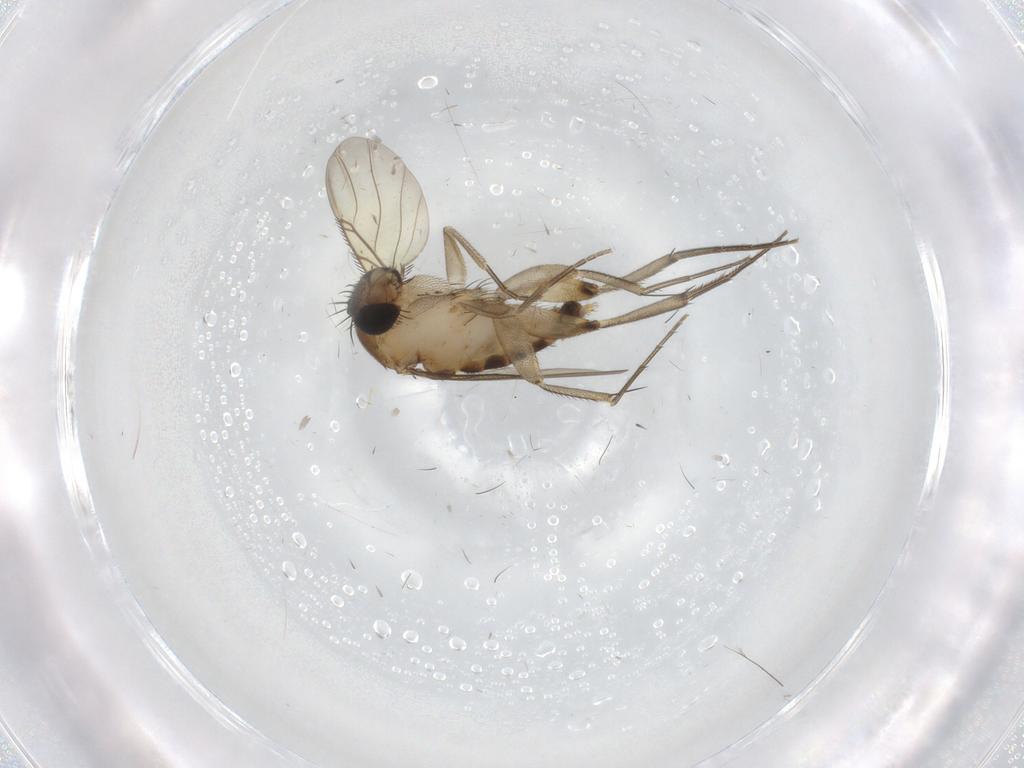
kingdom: Animalia
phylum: Arthropoda
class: Insecta
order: Diptera
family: Phoridae
